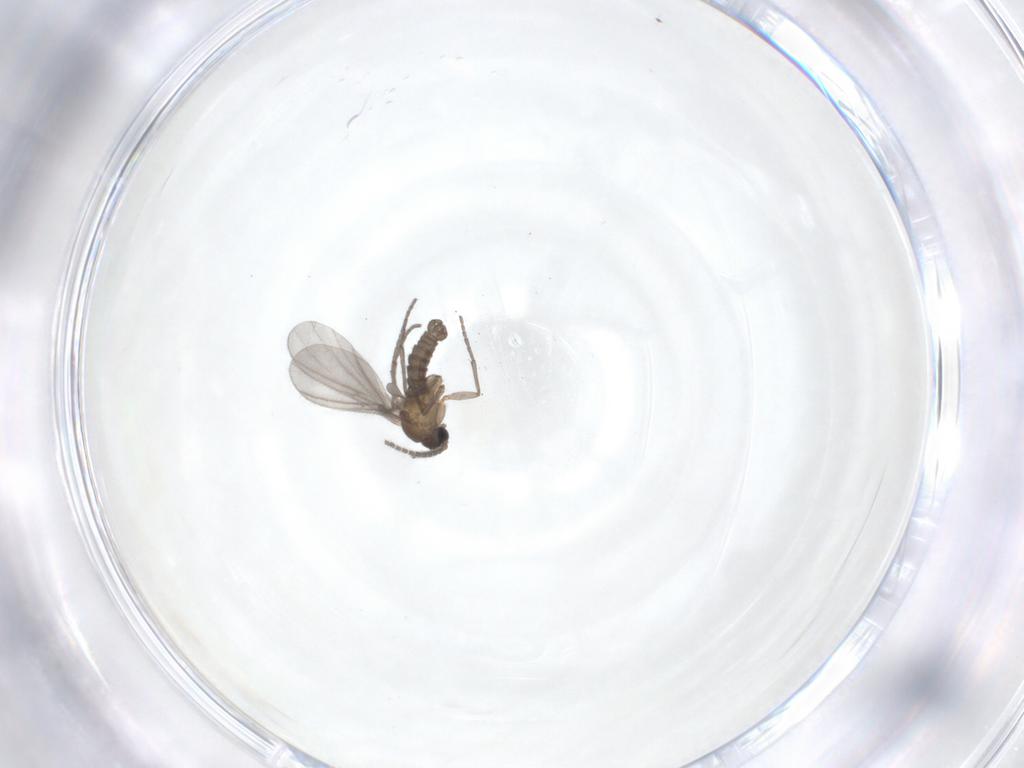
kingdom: Animalia
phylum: Arthropoda
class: Insecta
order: Diptera
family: Sciaridae
